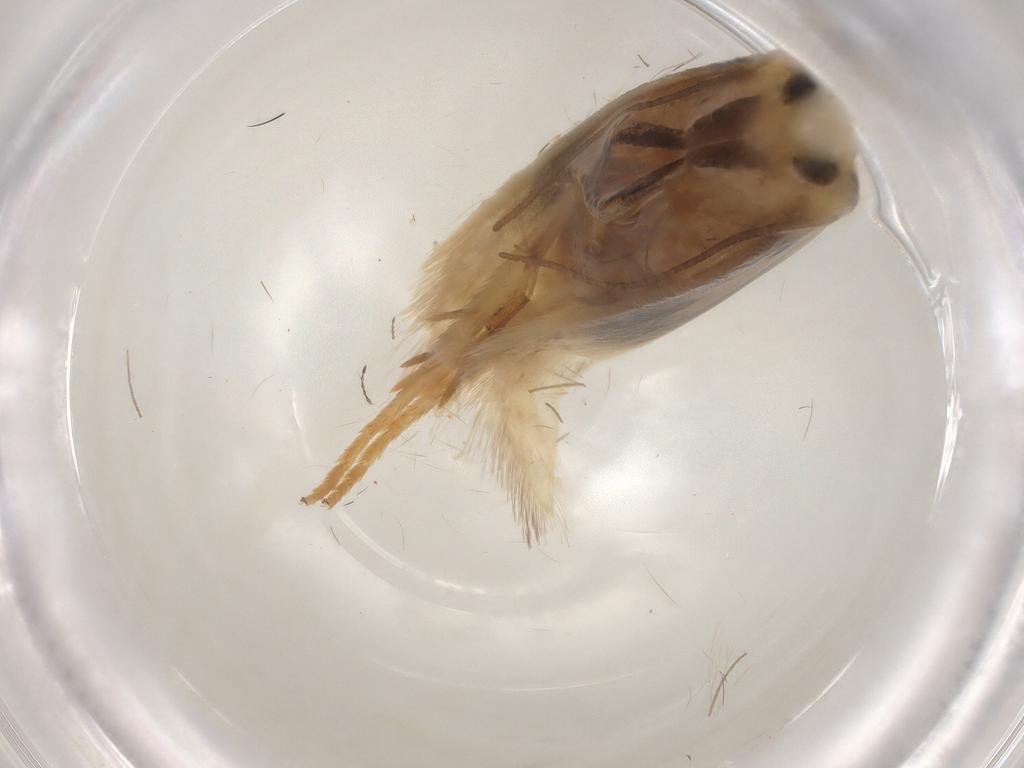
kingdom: Animalia
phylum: Arthropoda
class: Insecta
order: Lepidoptera
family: Geometridae
